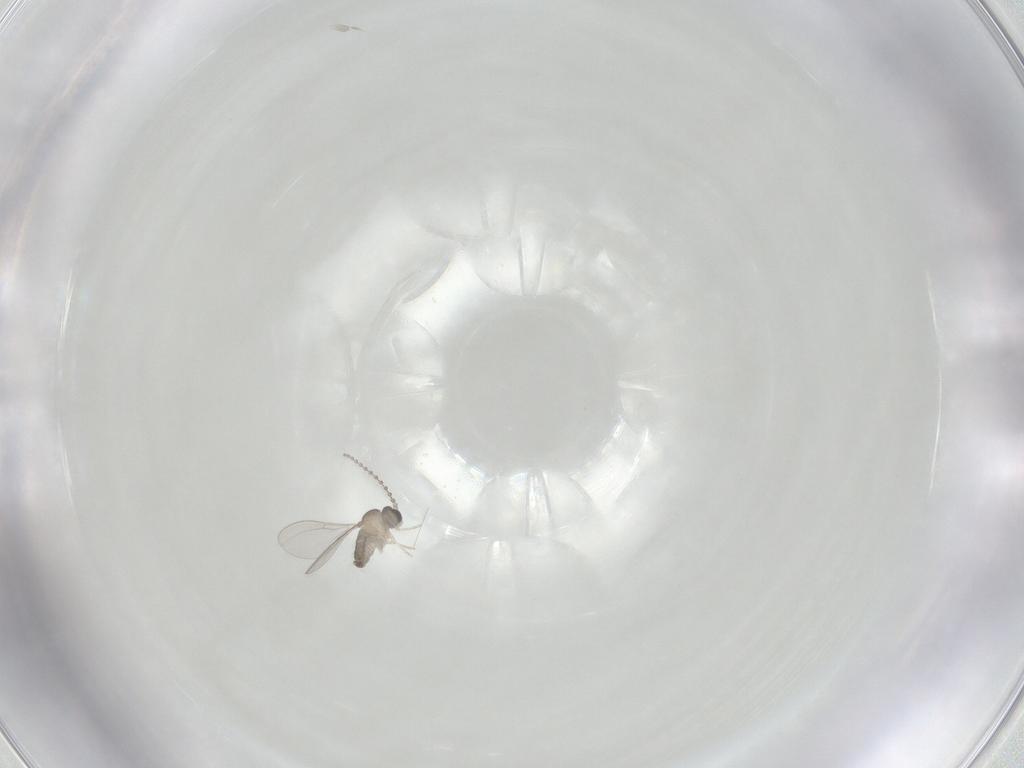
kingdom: Animalia
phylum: Arthropoda
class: Insecta
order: Diptera
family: Cecidomyiidae
